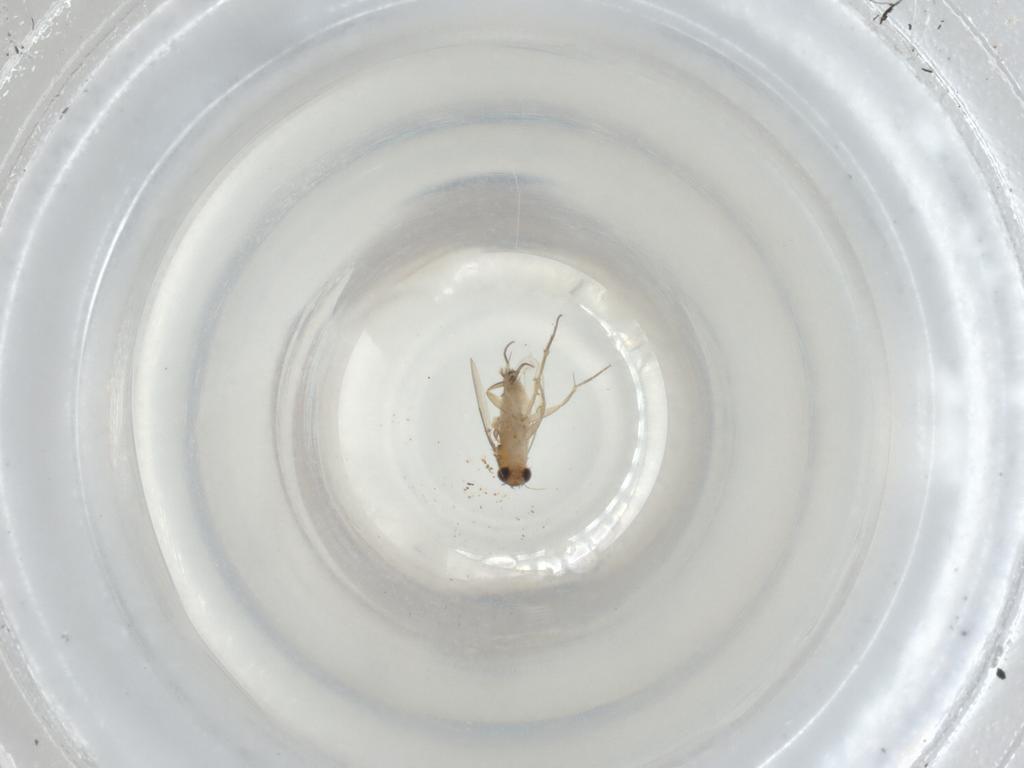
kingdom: Animalia
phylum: Arthropoda
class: Insecta
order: Diptera
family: Phoridae
